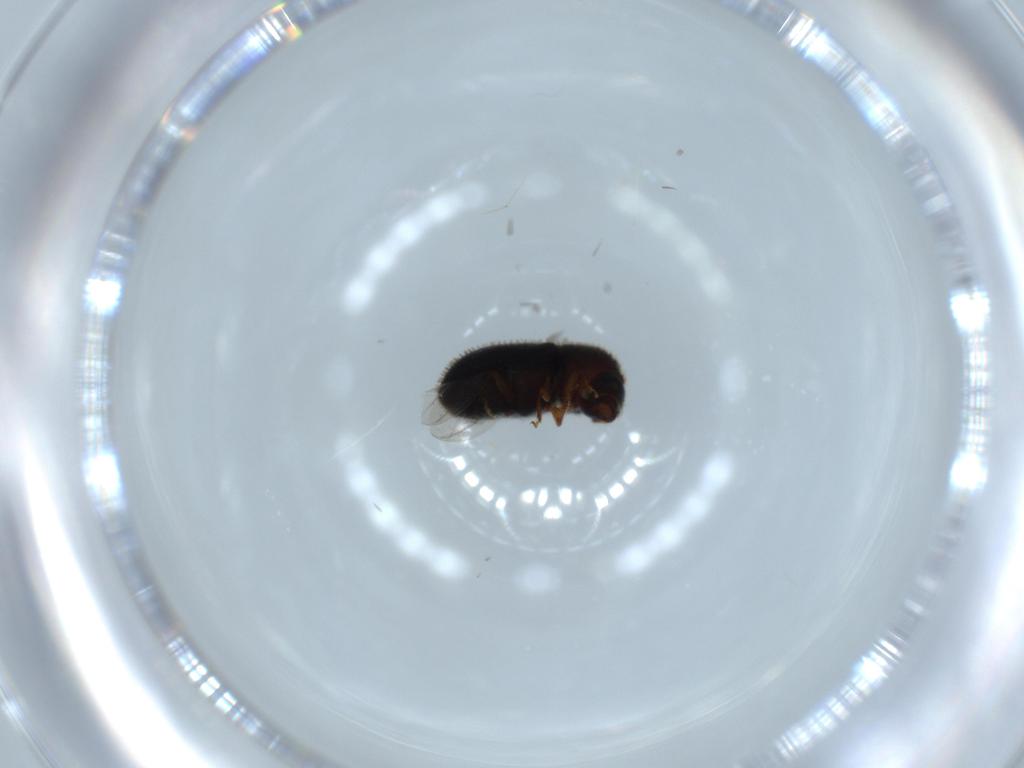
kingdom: Animalia
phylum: Arthropoda
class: Insecta
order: Coleoptera
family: Curculionidae
